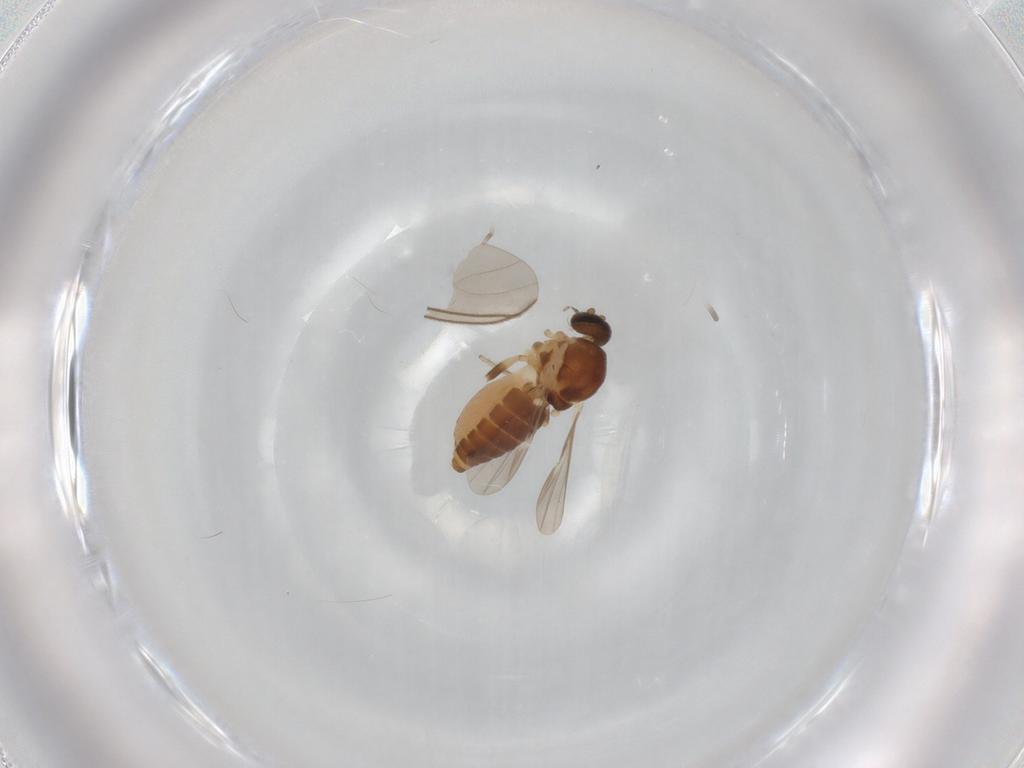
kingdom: Animalia
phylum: Arthropoda
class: Insecta
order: Diptera
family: Ceratopogonidae
